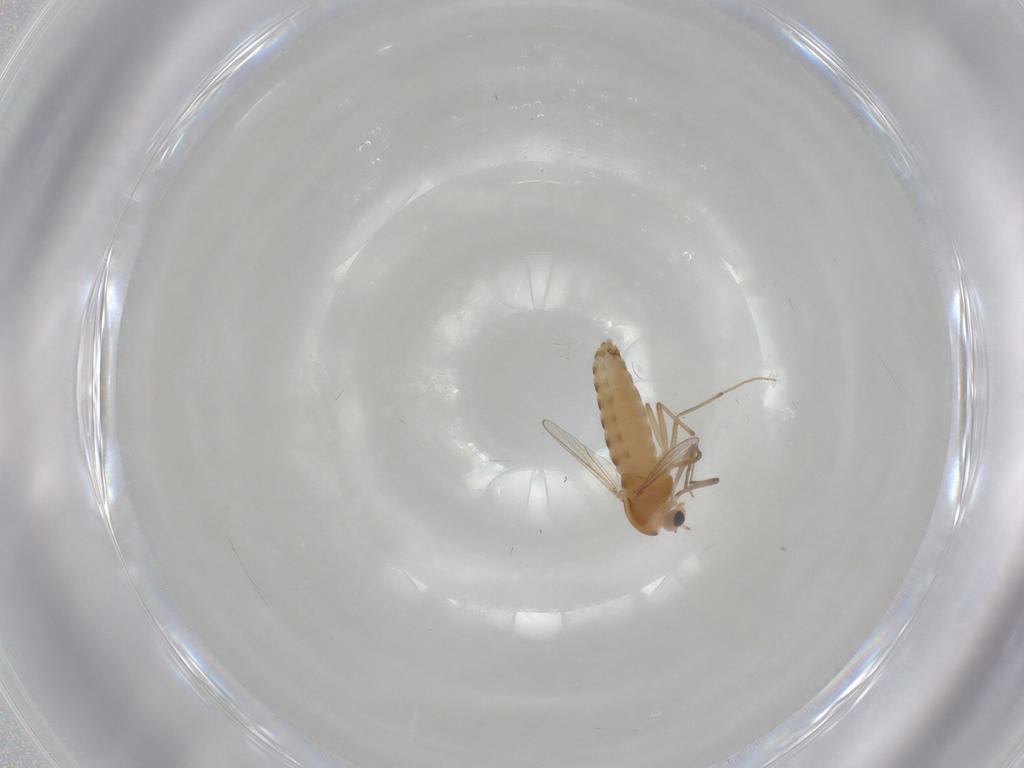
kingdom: Animalia
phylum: Arthropoda
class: Insecta
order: Diptera
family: Chironomidae
